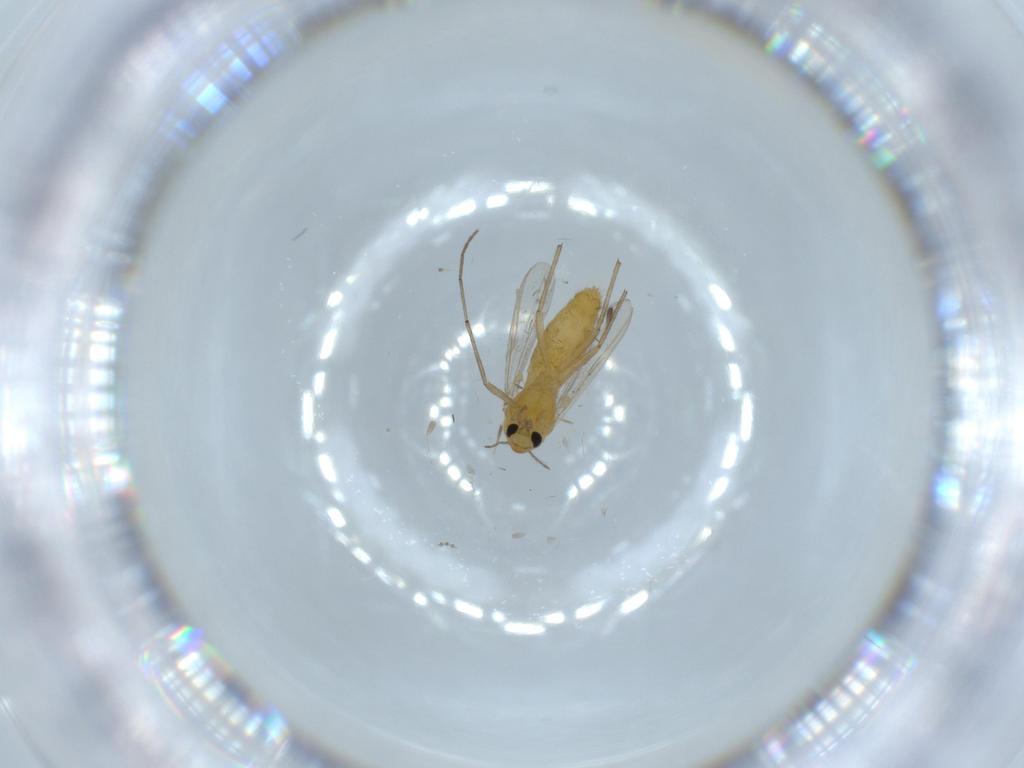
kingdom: Animalia
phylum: Arthropoda
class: Insecta
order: Diptera
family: Chironomidae
